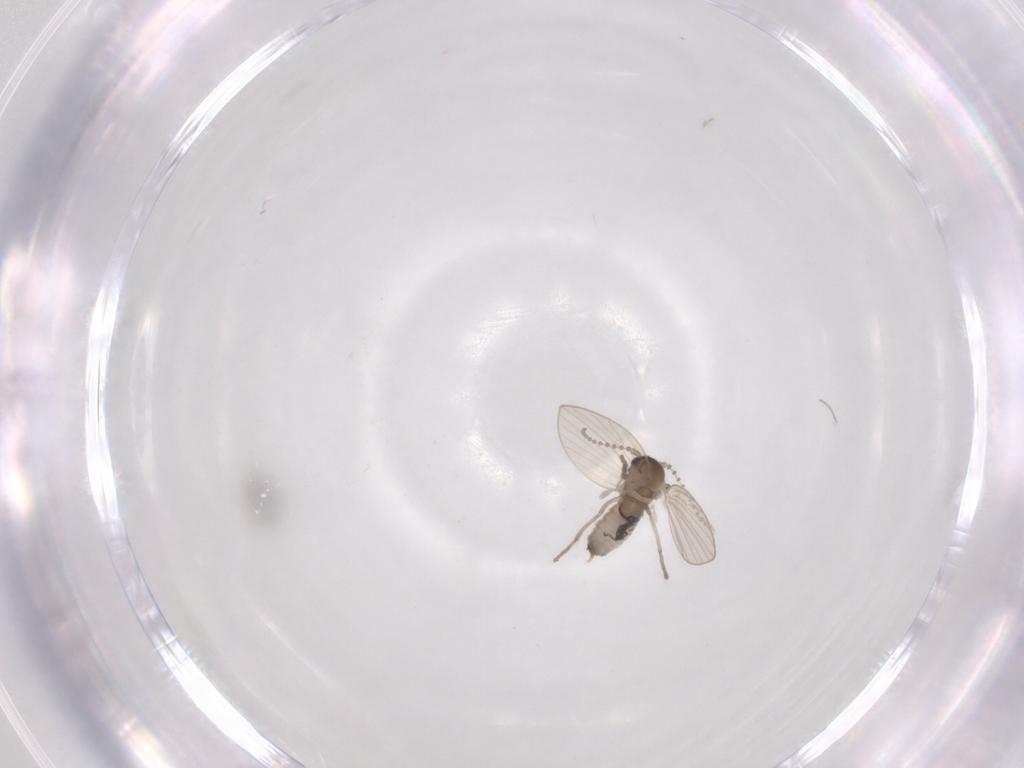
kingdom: Animalia
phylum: Arthropoda
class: Insecta
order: Diptera
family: Psychodidae
